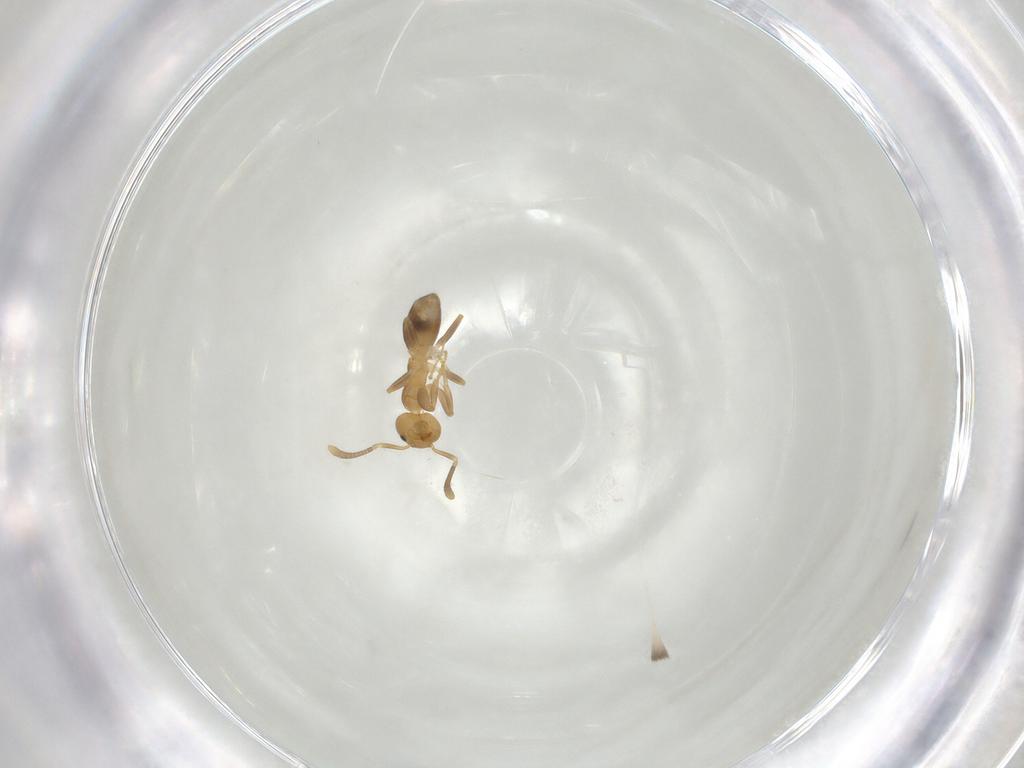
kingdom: Animalia
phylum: Arthropoda
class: Insecta
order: Hymenoptera
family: Formicidae
